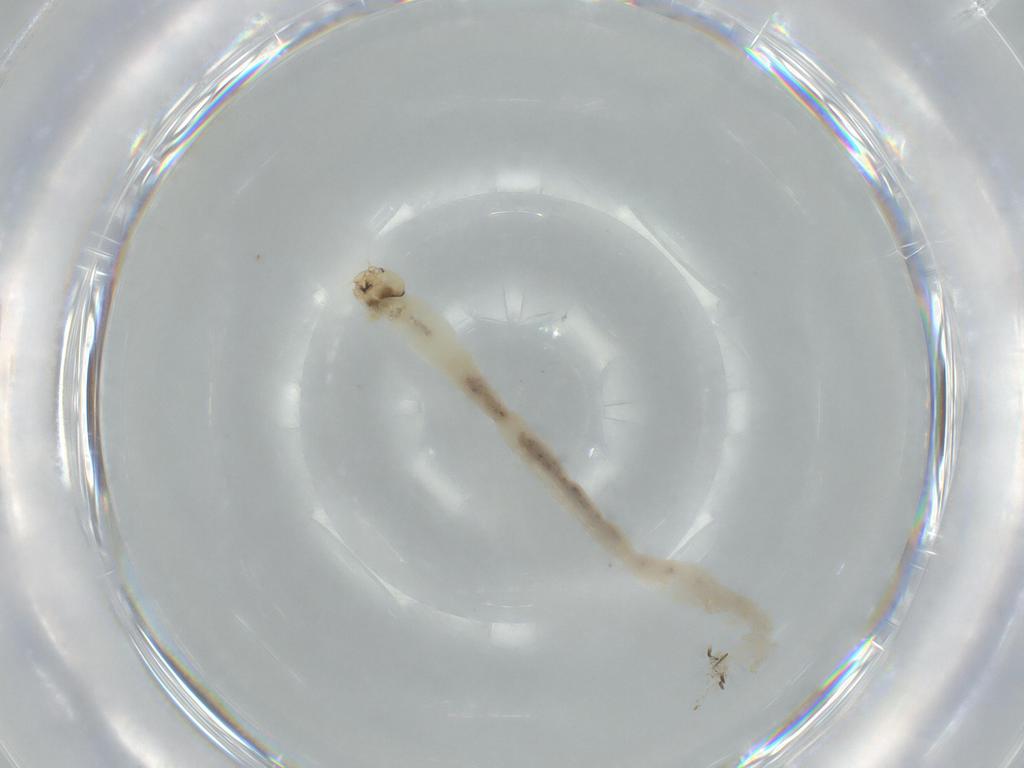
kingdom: Animalia
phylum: Arthropoda
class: Insecta
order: Diptera
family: Chironomidae
